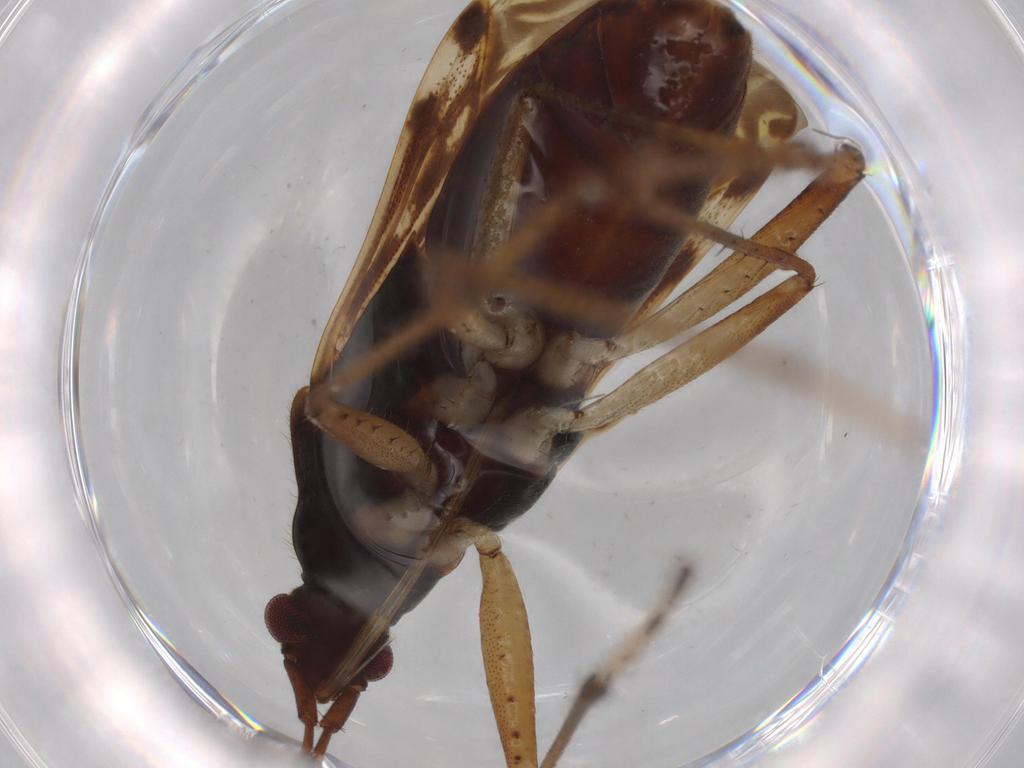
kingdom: Animalia
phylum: Arthropoda
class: Insecta
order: Hemiptera
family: Rhyparochromidae
